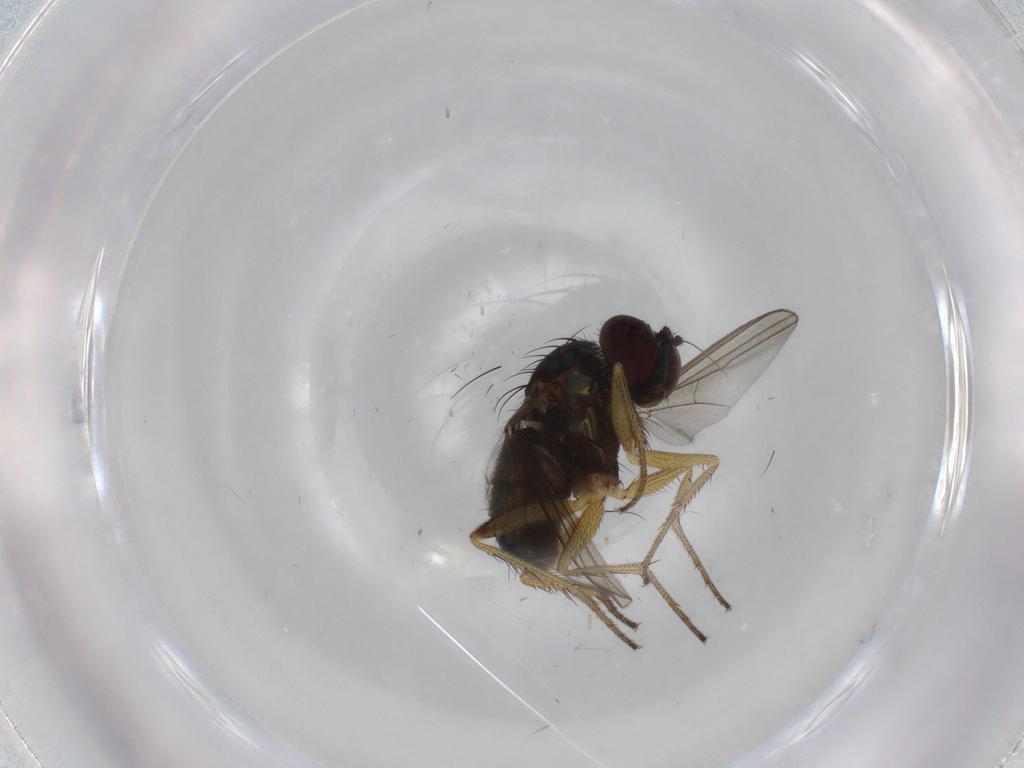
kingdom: Animalia
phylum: Arthropoda
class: Insecta
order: Diptera
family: Dolichopodidae
